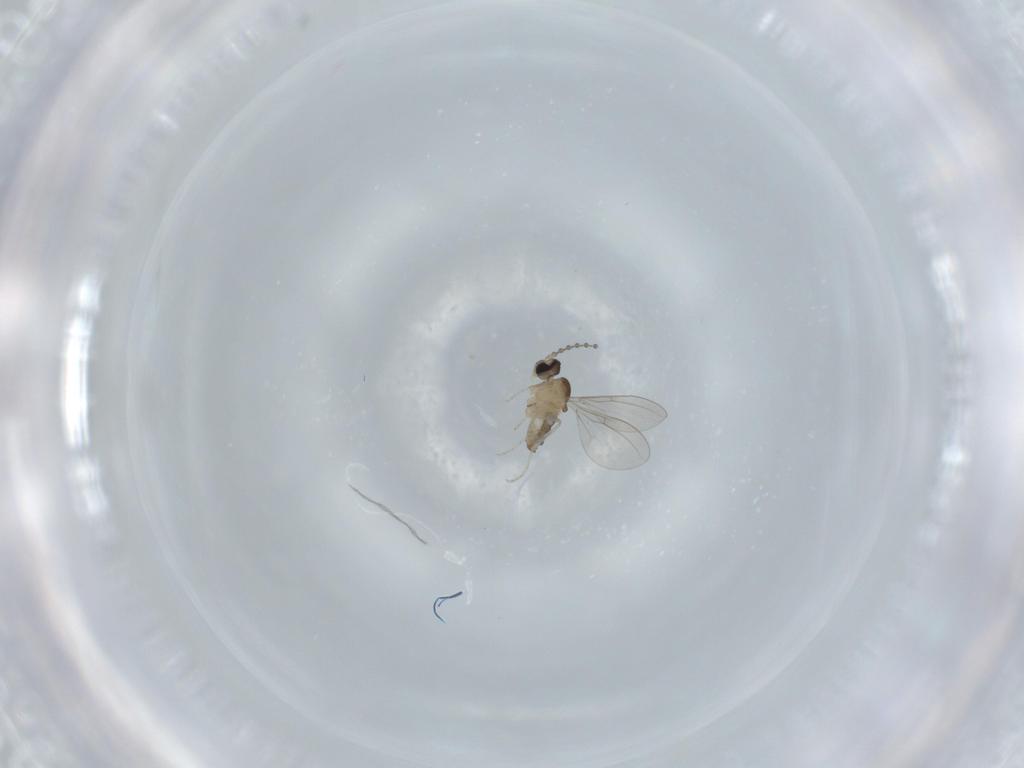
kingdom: Animalia
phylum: Arthropoda
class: Insecta
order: Diptera
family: Cecidomyiidae
